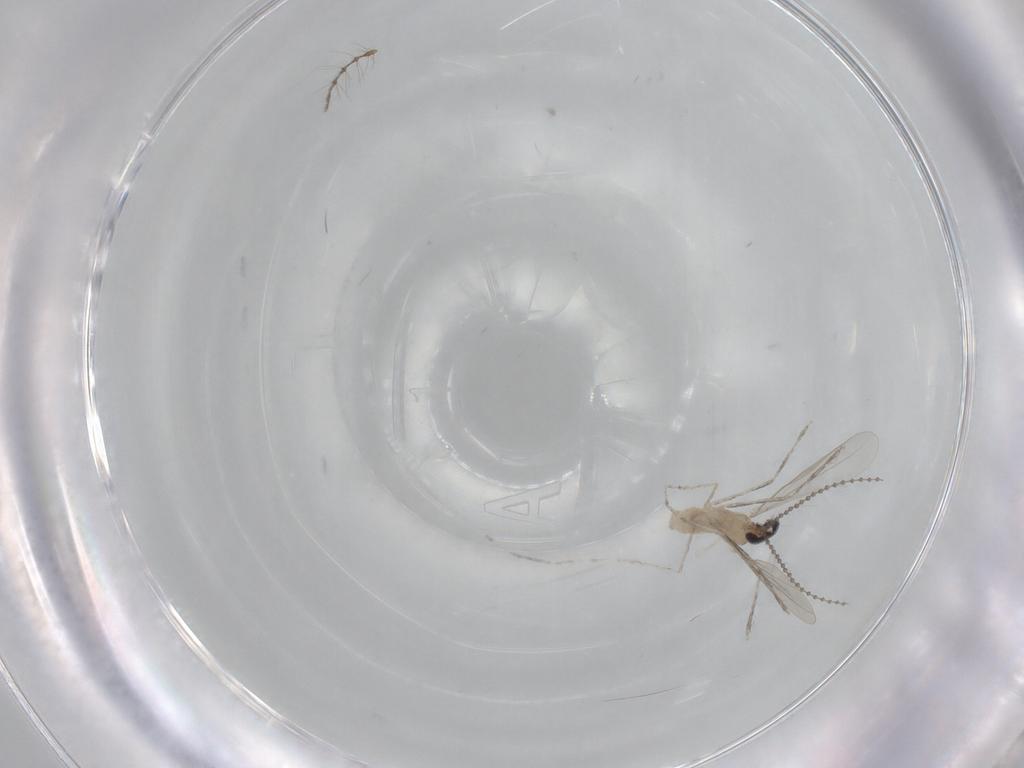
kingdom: Animalia
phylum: Arthropoda
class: Insecta
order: Diptera
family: Cecidomyiidae
